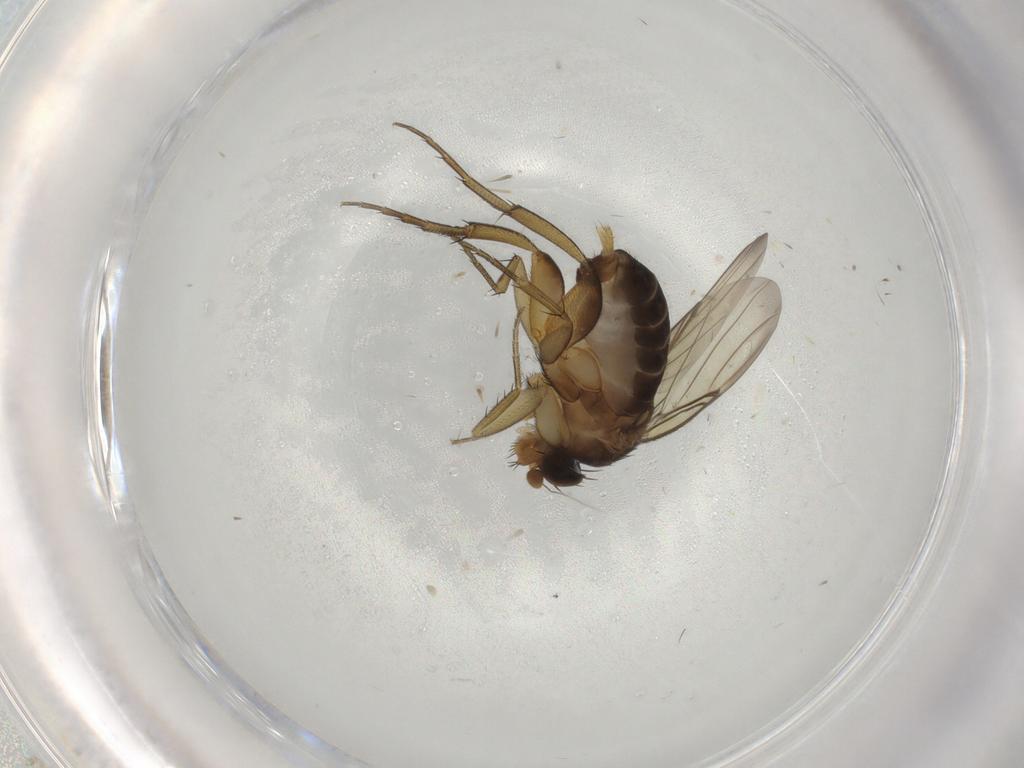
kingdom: Animalia
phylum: Arthropoda
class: Insecta
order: Diptera
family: Phoridae
